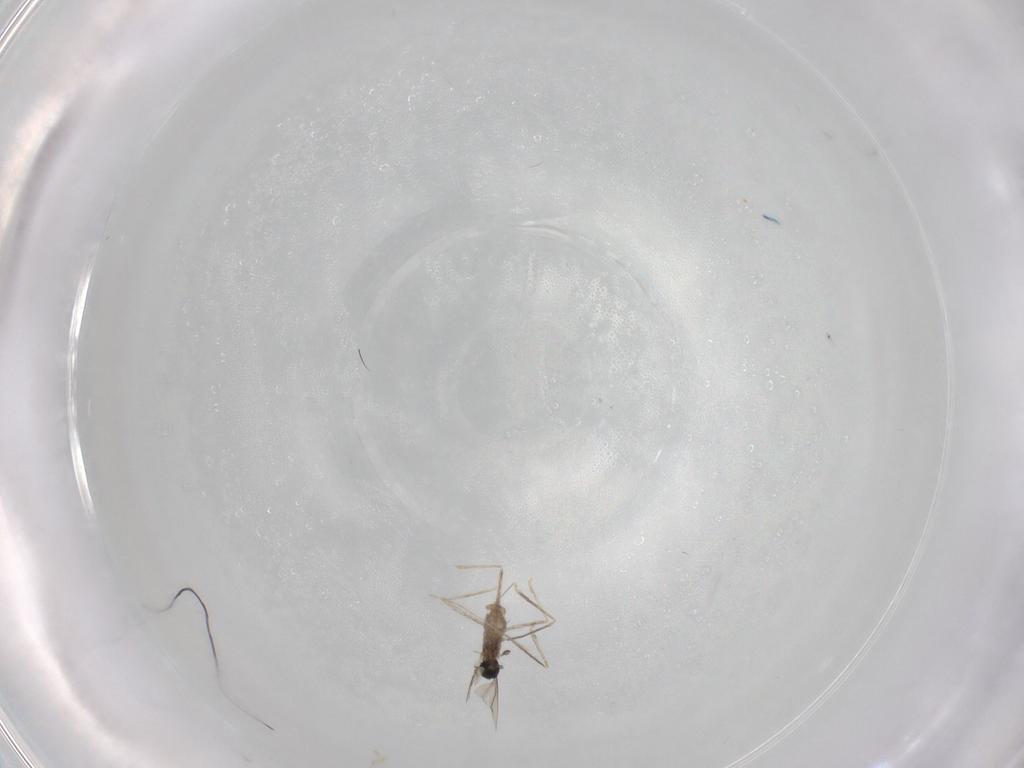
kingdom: Animalia
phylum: Arthropoda
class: Insecta
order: Diptera
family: Cecidomyiidae
